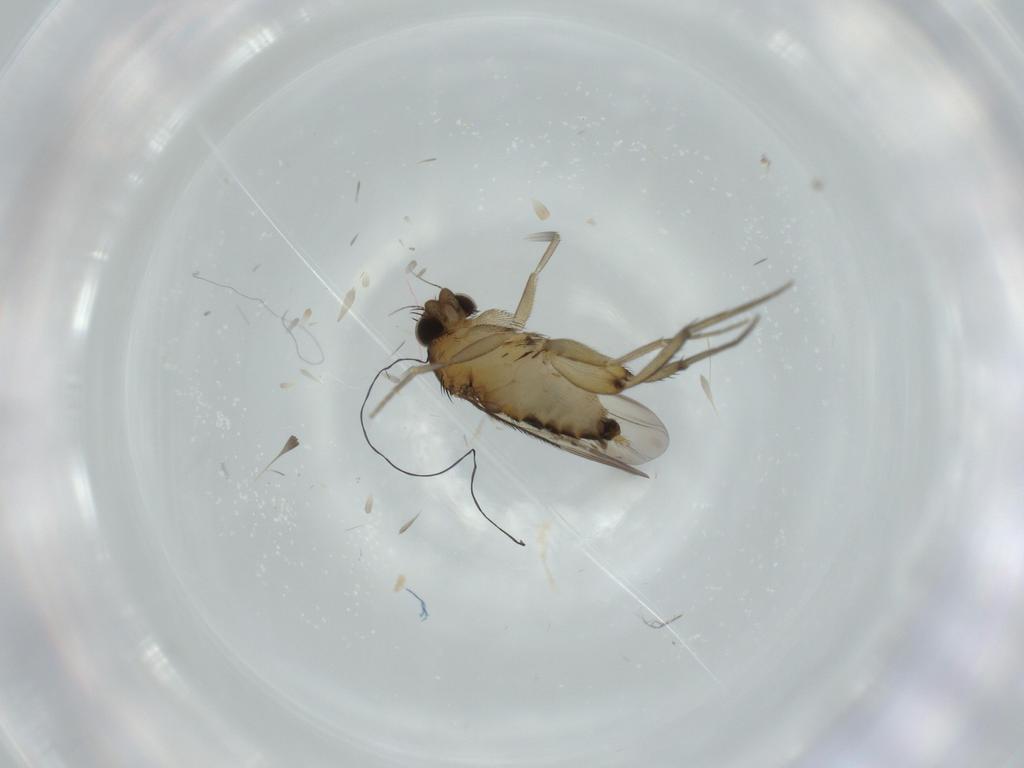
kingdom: Animalia
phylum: Arthropoda
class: Insecta
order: Diptera
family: Phoridae
